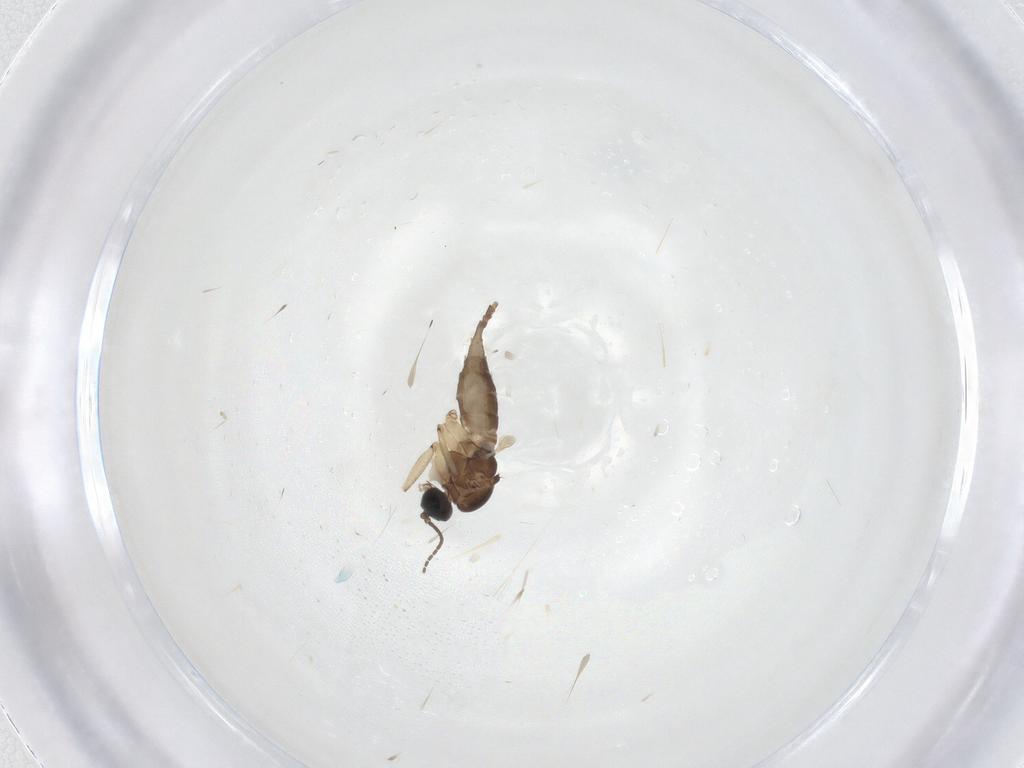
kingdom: Animalia
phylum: Arthropoda
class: Insecta
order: Diptera
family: Sciaridae
